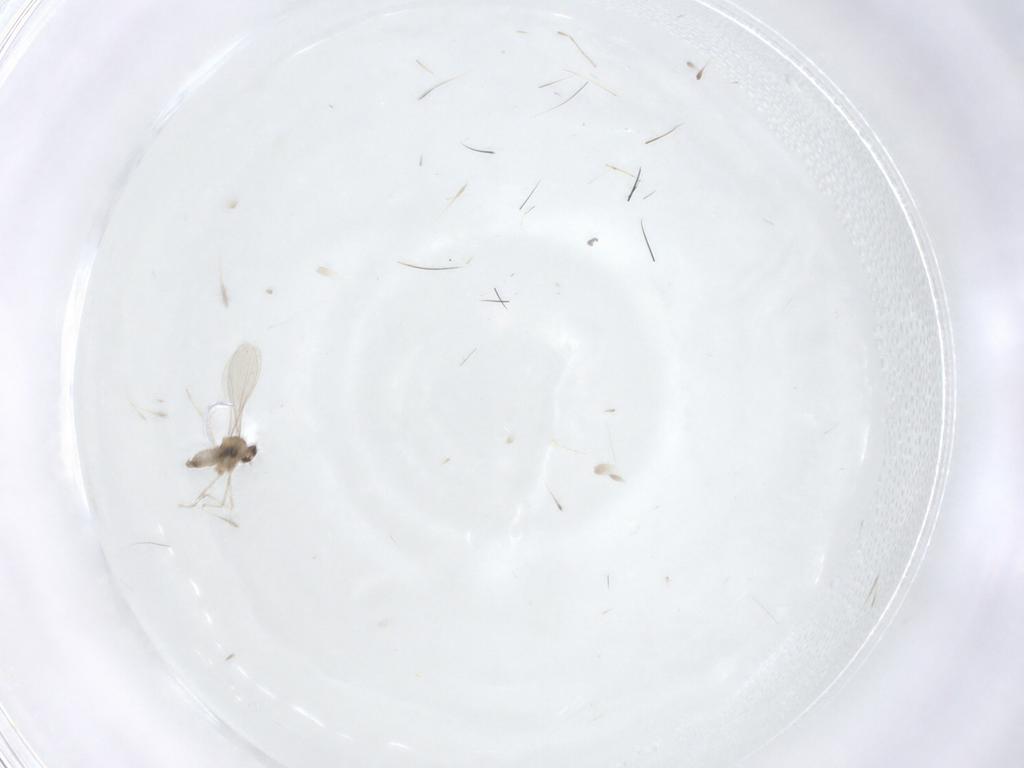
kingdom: Animalia
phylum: Arthropoda
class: Insecta
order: Diptera
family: Cecidomyiidae
